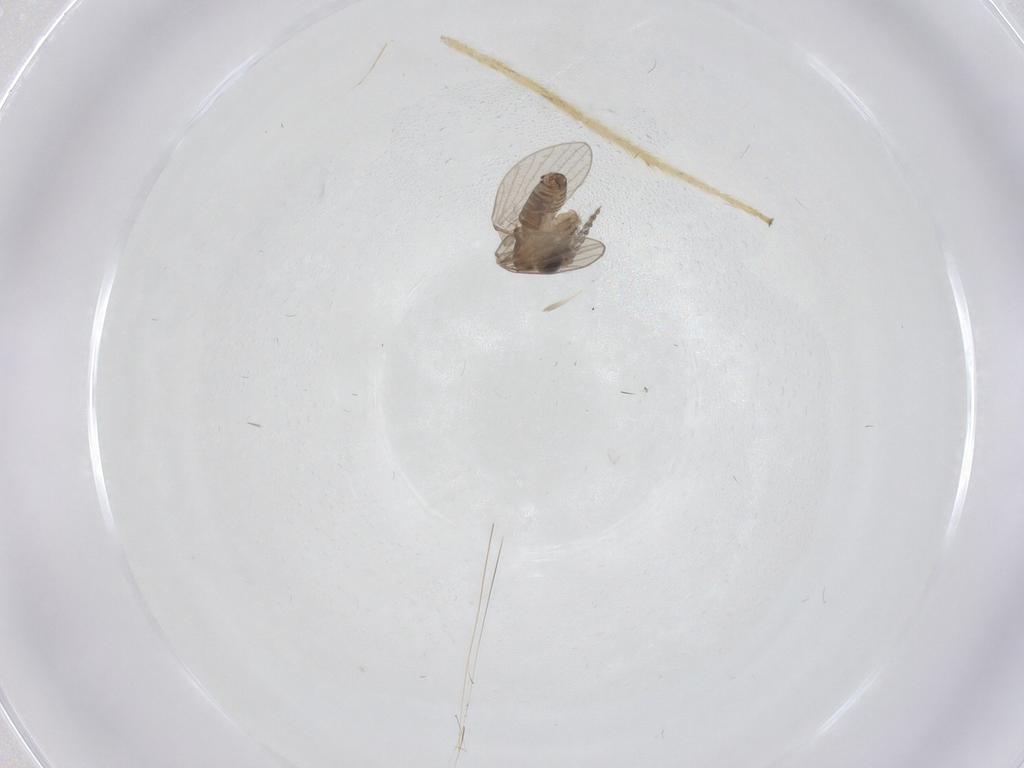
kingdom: Animalia
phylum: Arthropoda
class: Insecta
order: Diptera
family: Psychodidae
